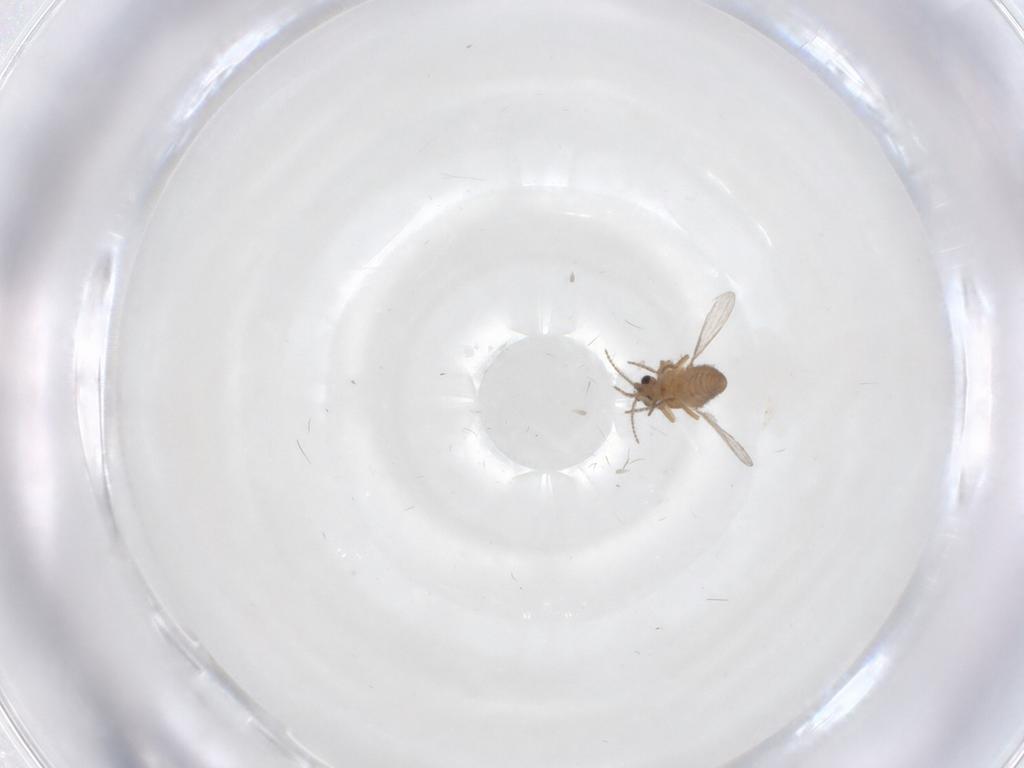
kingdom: Animalia
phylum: Arthropoda
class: Insecta
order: Diptera
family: Ceratopogonidae
